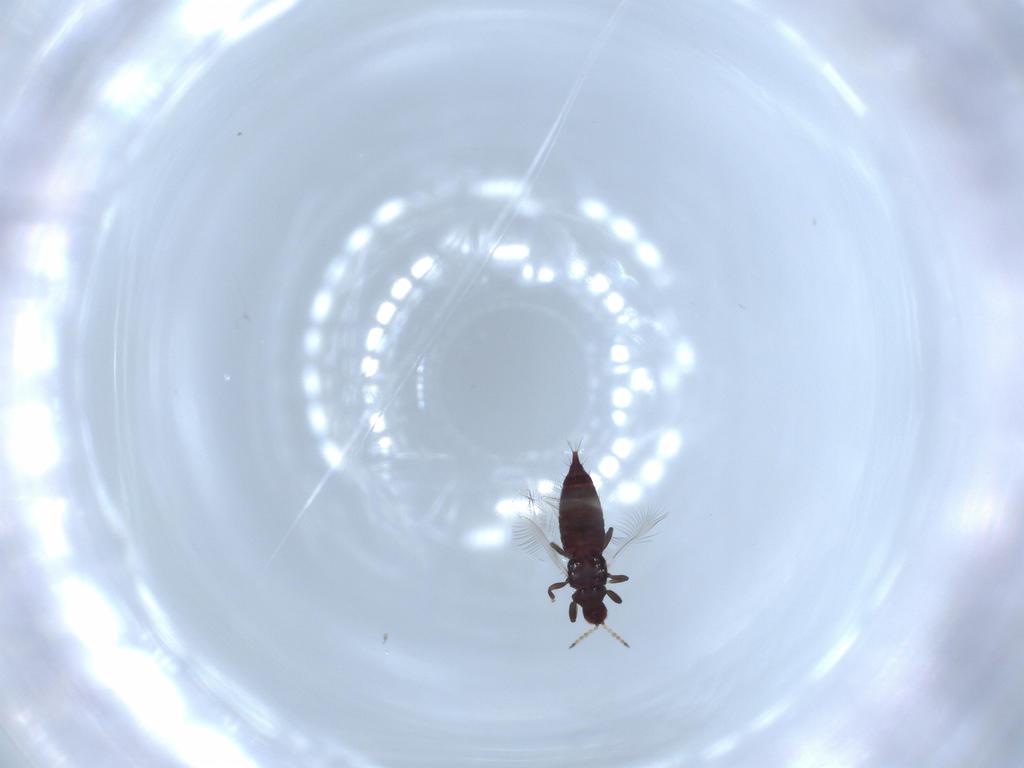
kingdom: Animalia
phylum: Arthropoda
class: Insecta
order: Thysanoptera
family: Phlaeothripidae
